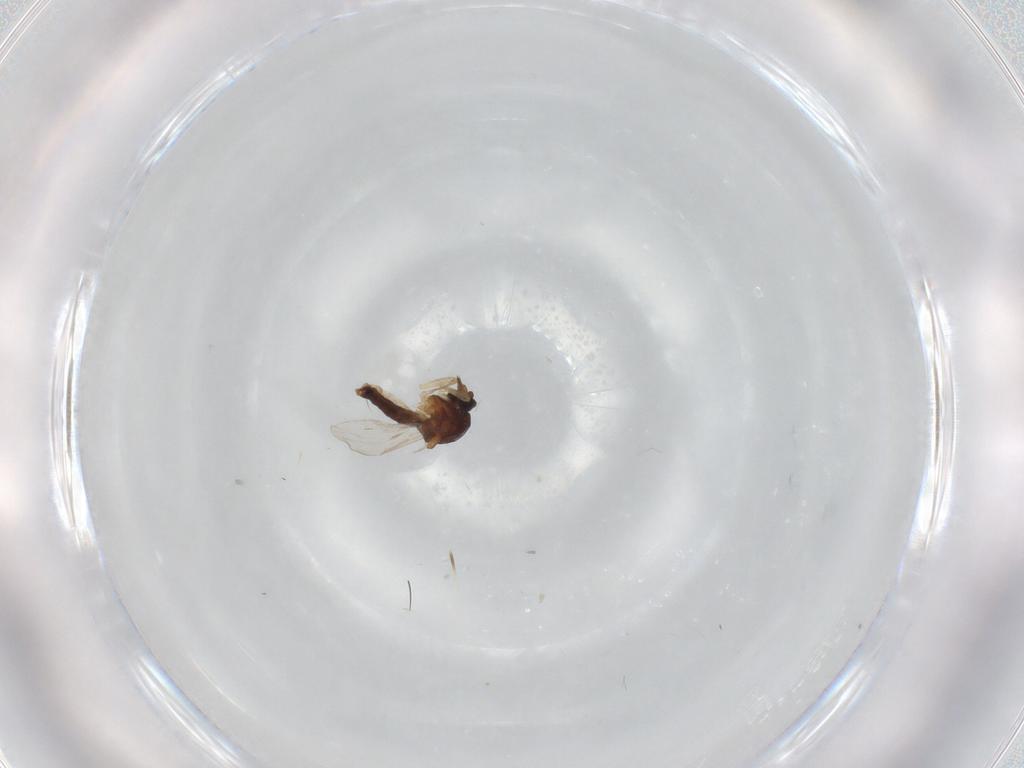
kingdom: Animalia
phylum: Arthropoda
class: Insecta
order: Diptera
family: Ceratopogonidae
